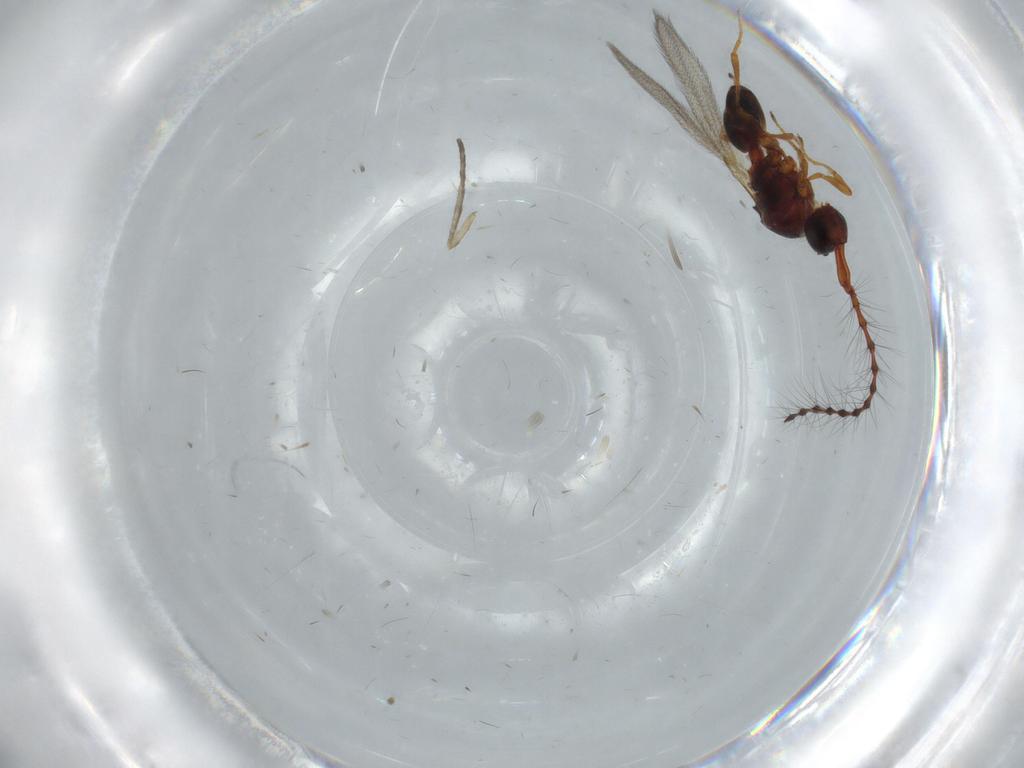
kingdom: Animalia
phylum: Arthropoda
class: Insecta
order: Hymenoptera
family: Diapriidae
